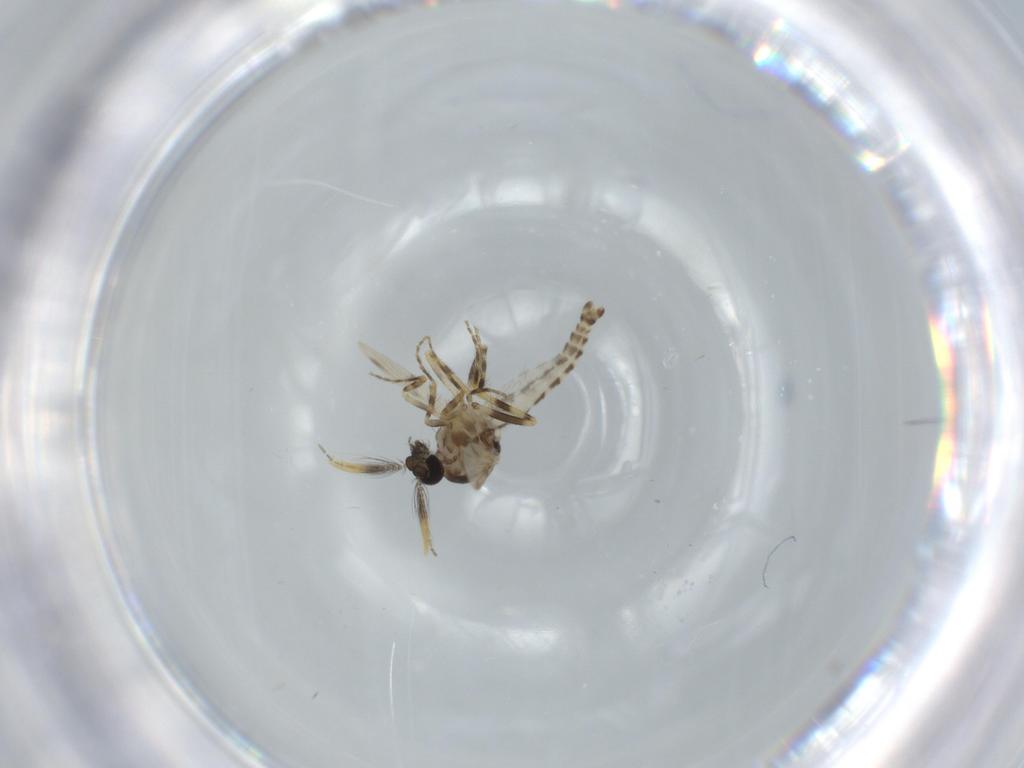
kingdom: Animalia
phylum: Arthropoda
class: Insecta
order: Diptera
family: Ceratopogonidae
